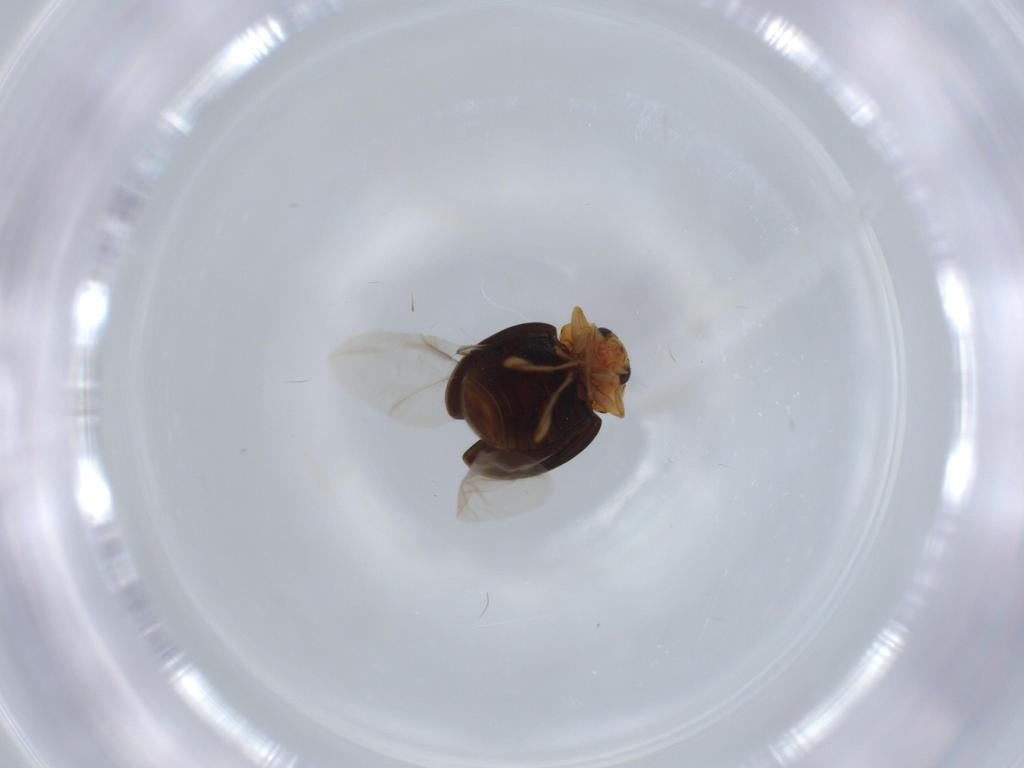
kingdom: Animalia
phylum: Arthropoda
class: Insecta
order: Coleoptera
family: Coccinellidae
